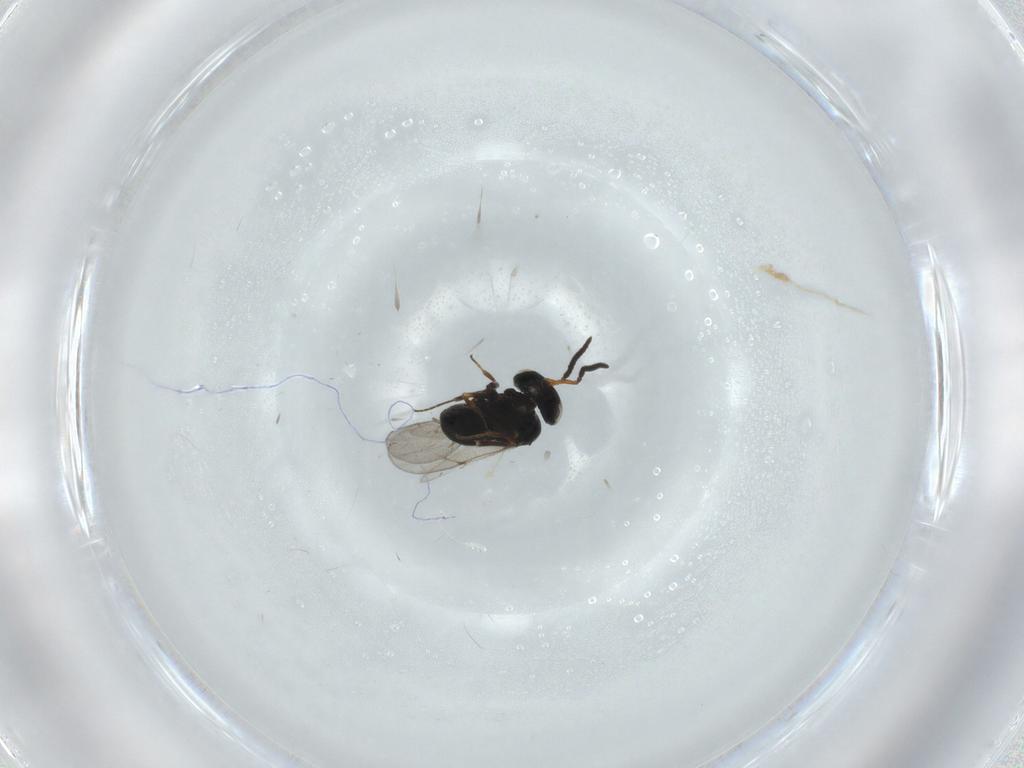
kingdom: Animalia
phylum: Arthropoda
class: Insecta
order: Hymenoptera
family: Scelionidae
